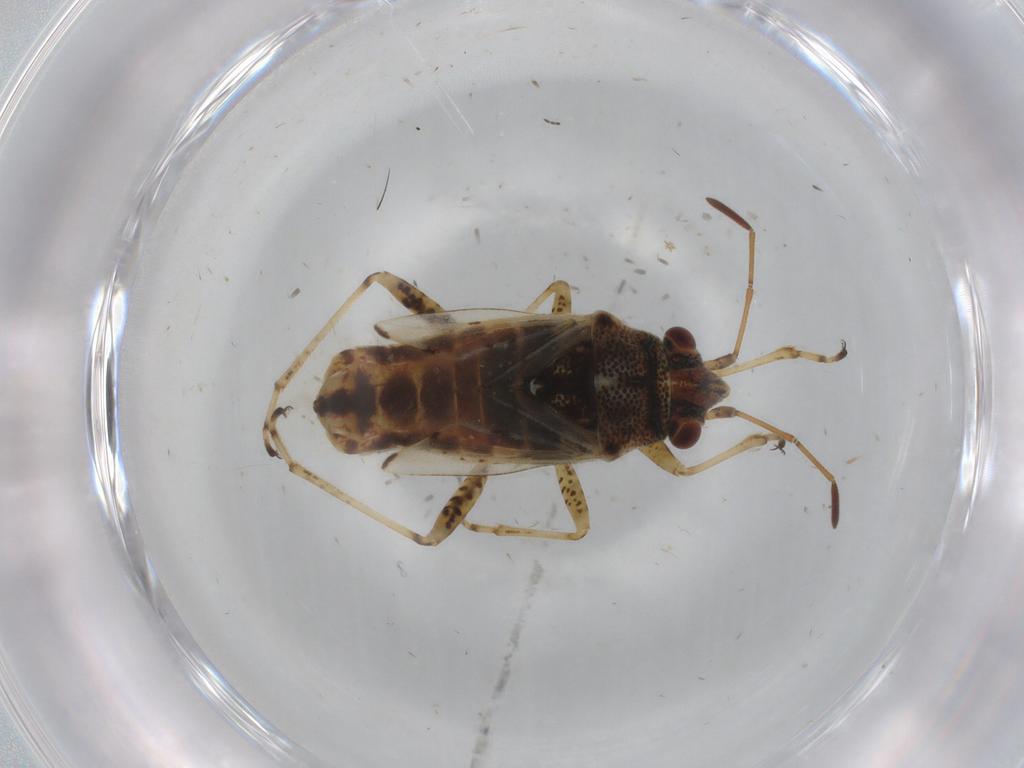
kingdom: Animalia
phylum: Arthropoda
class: Insecta
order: Hemiptera
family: Lygaeidae
